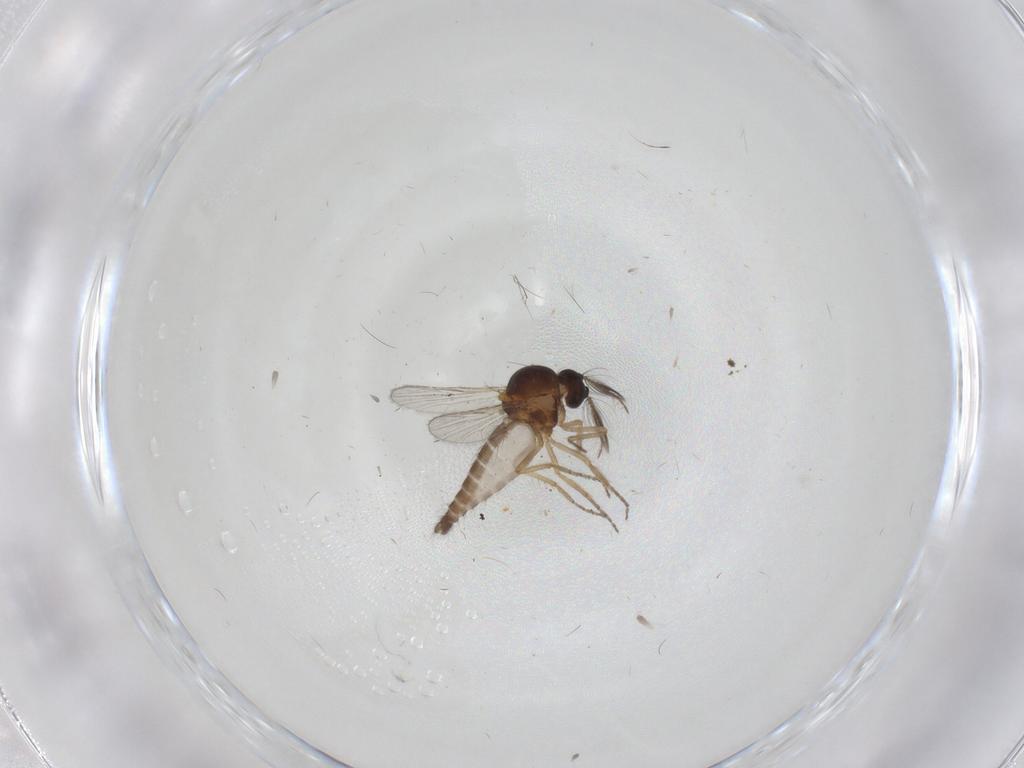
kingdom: Animalia
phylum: Arthropoda
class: Insecta
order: Diptera
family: Ceratopogonidae
